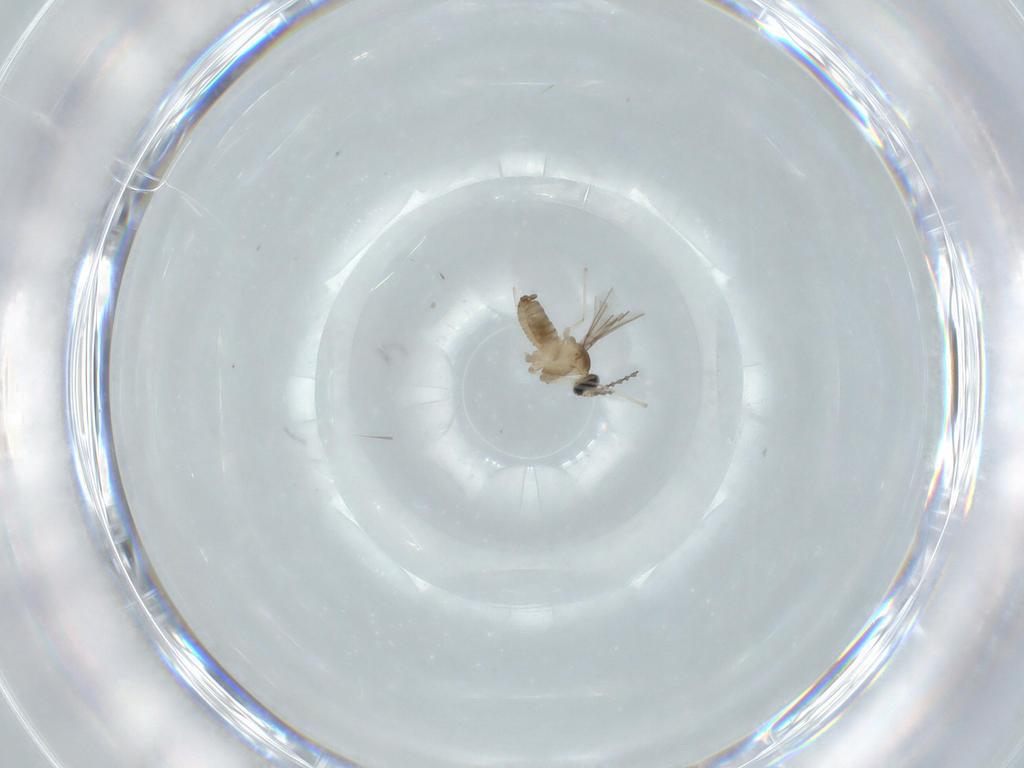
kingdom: Animalia
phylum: Arthropoda
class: Insecta
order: Diptera
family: Cecidomyiidae
